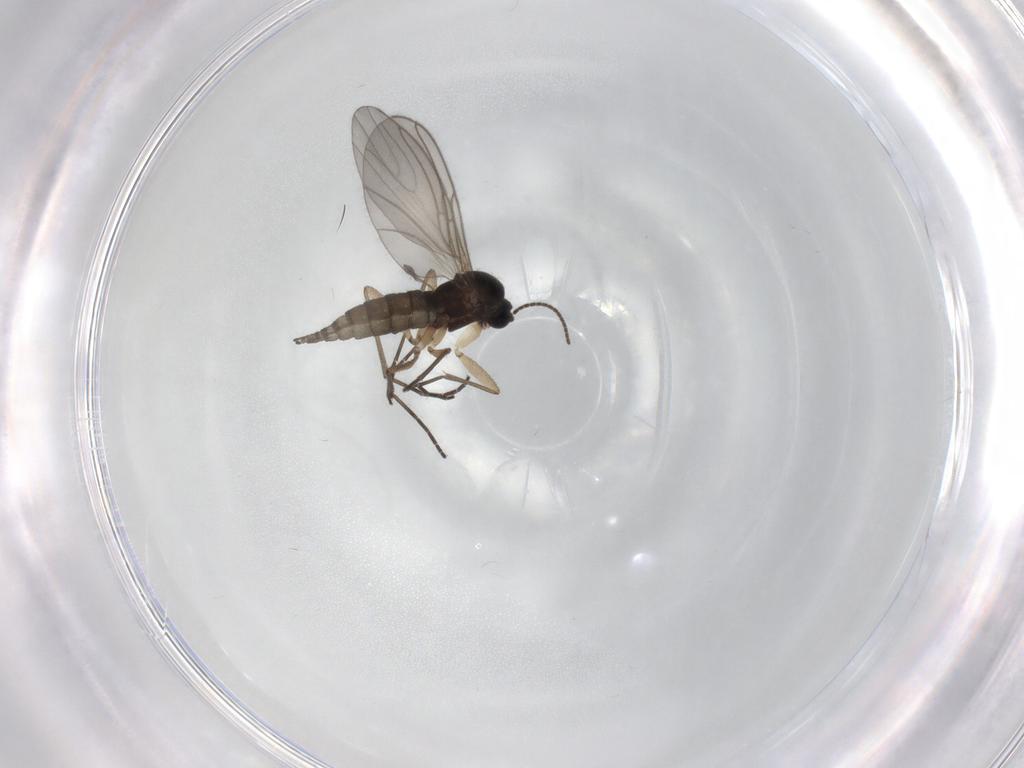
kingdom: Animalia
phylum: Arthropoda
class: Insecta
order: Diptera
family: Sciaridae
